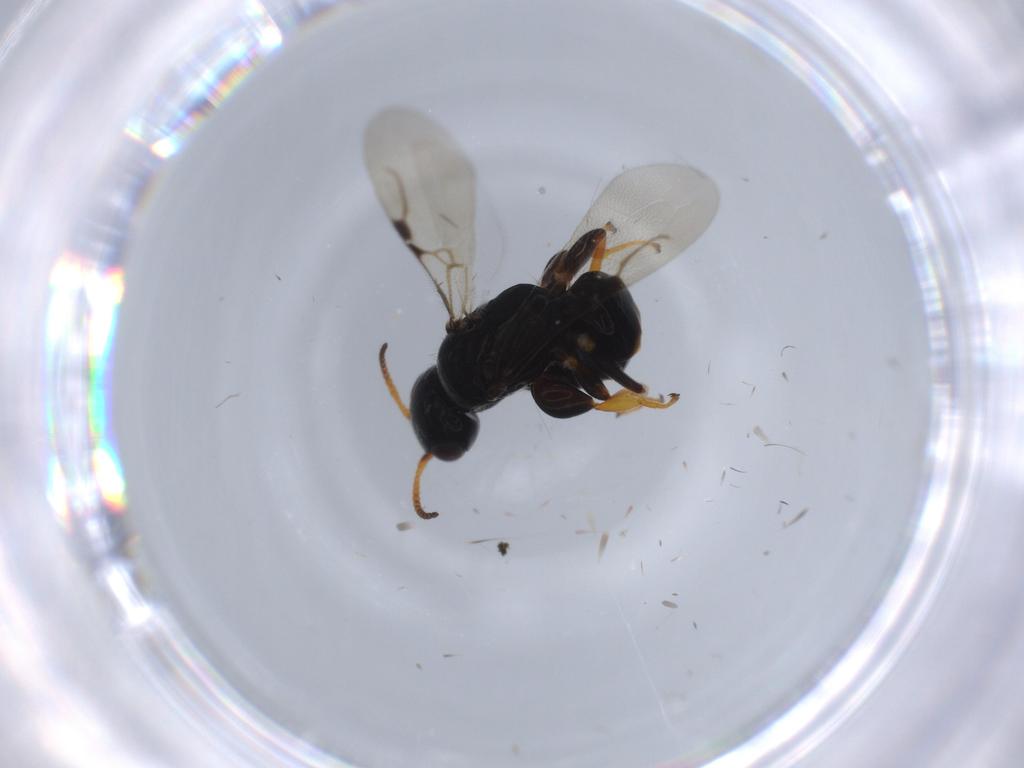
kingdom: Animalia
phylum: Arthropoda
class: Insecta
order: Hymenoptera
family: Bethylidae
